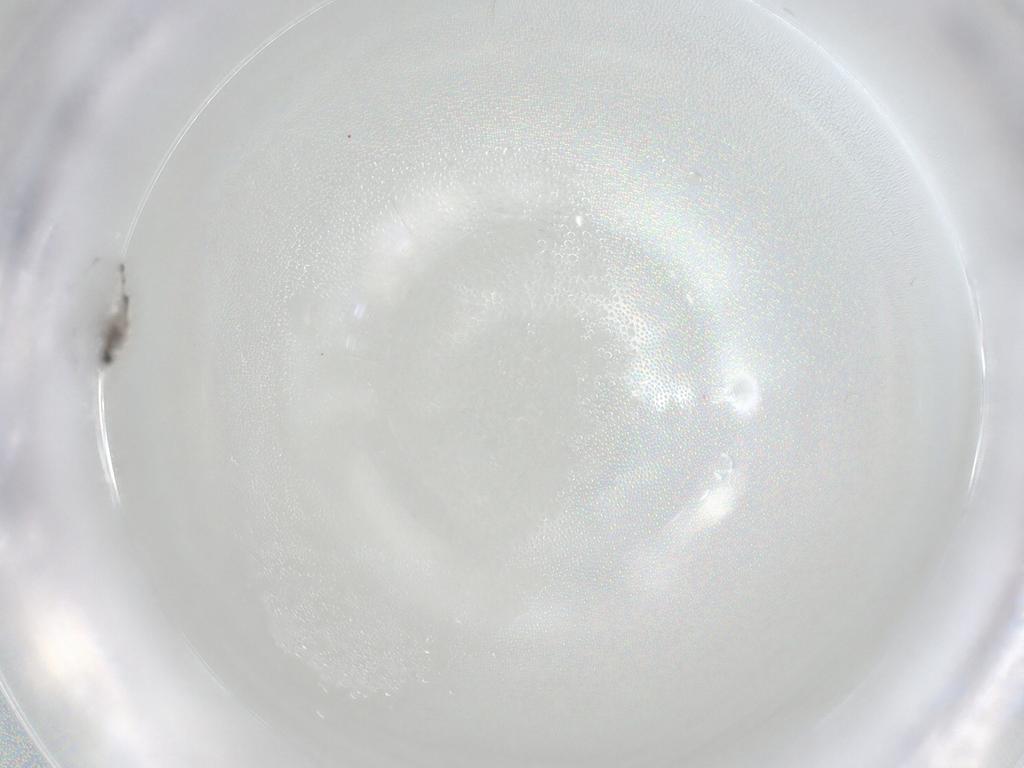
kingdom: Animalia
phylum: Arthropoda
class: Insecta
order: Diptera
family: Cecidomyiidae
